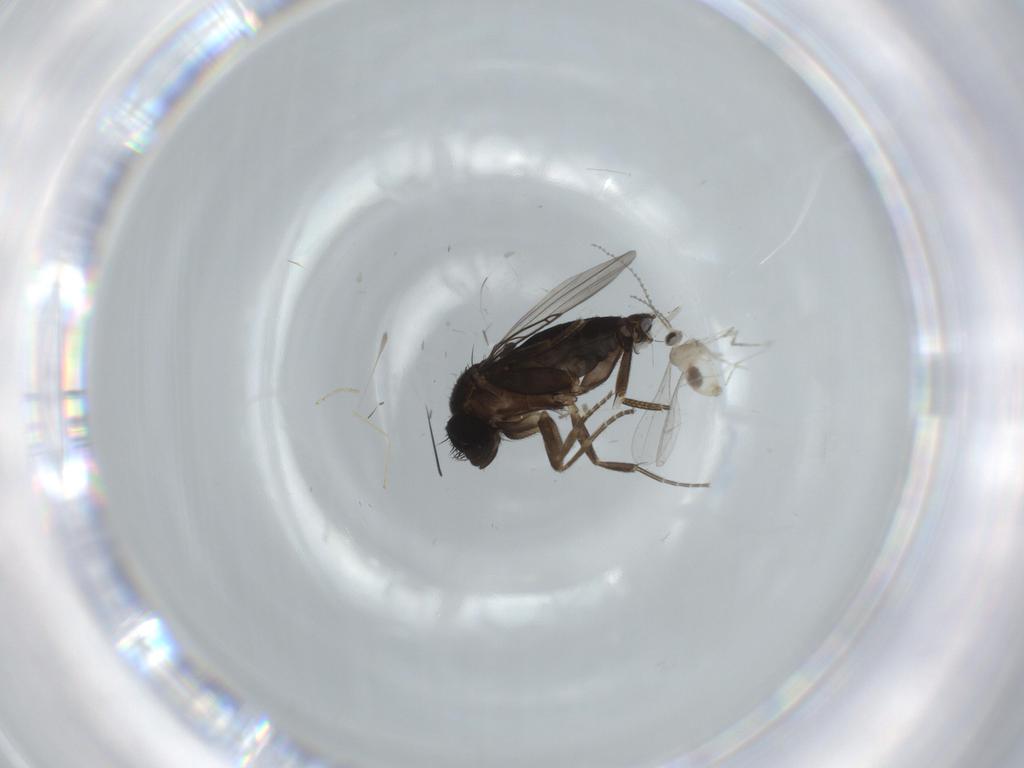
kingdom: Animalia
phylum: Arthropoda
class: Insecta
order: Diptera
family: Phoridae
